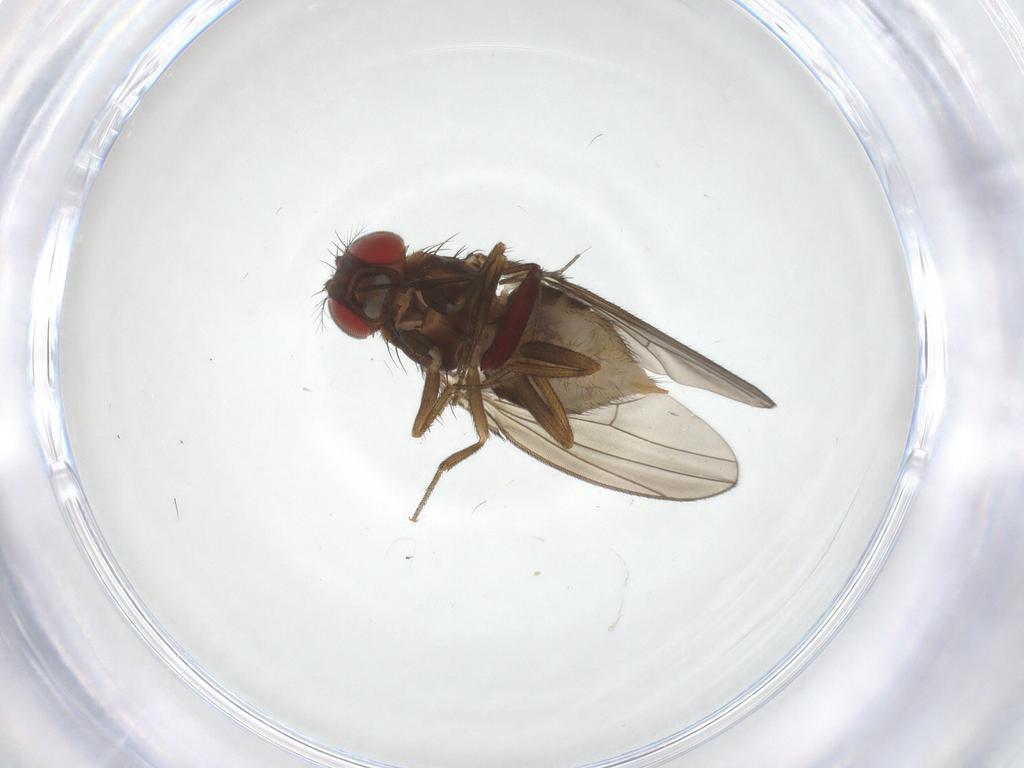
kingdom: Animalia
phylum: Arthropoda
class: Insecta
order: Diptera
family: Drosophilidae
